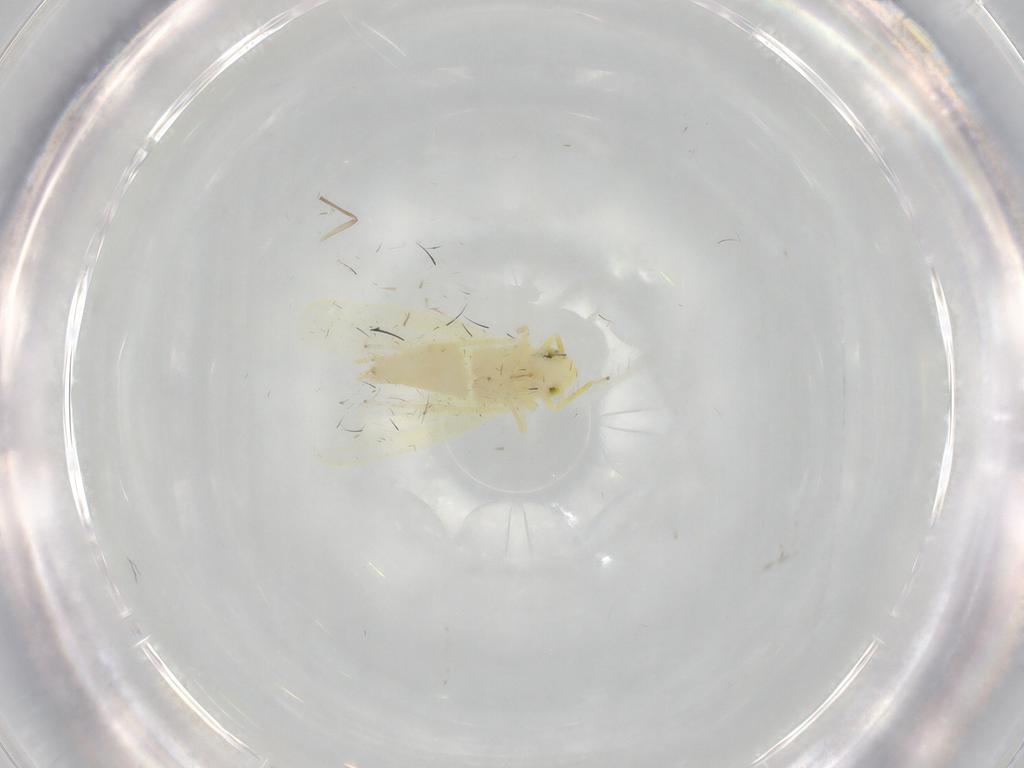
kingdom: Animalia
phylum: Arthropoda
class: Insecta
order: Hemiptera
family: Cicadellidae
